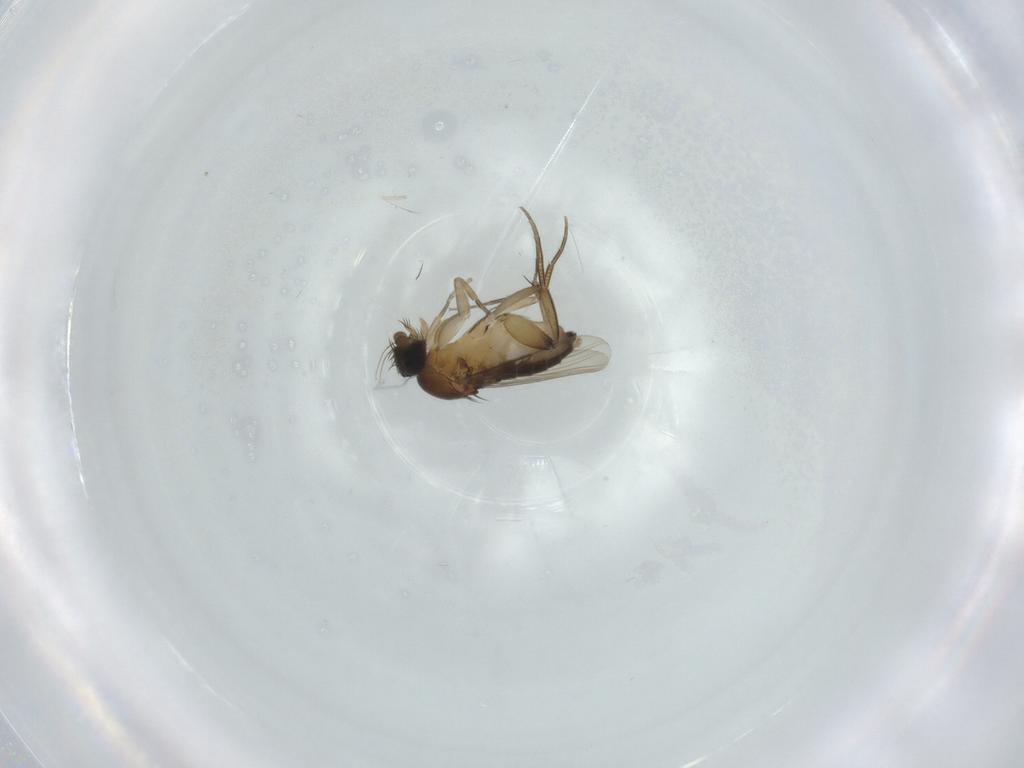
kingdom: Animalia
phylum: Arthropoda
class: Insecta
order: Diptera
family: Phoridae
